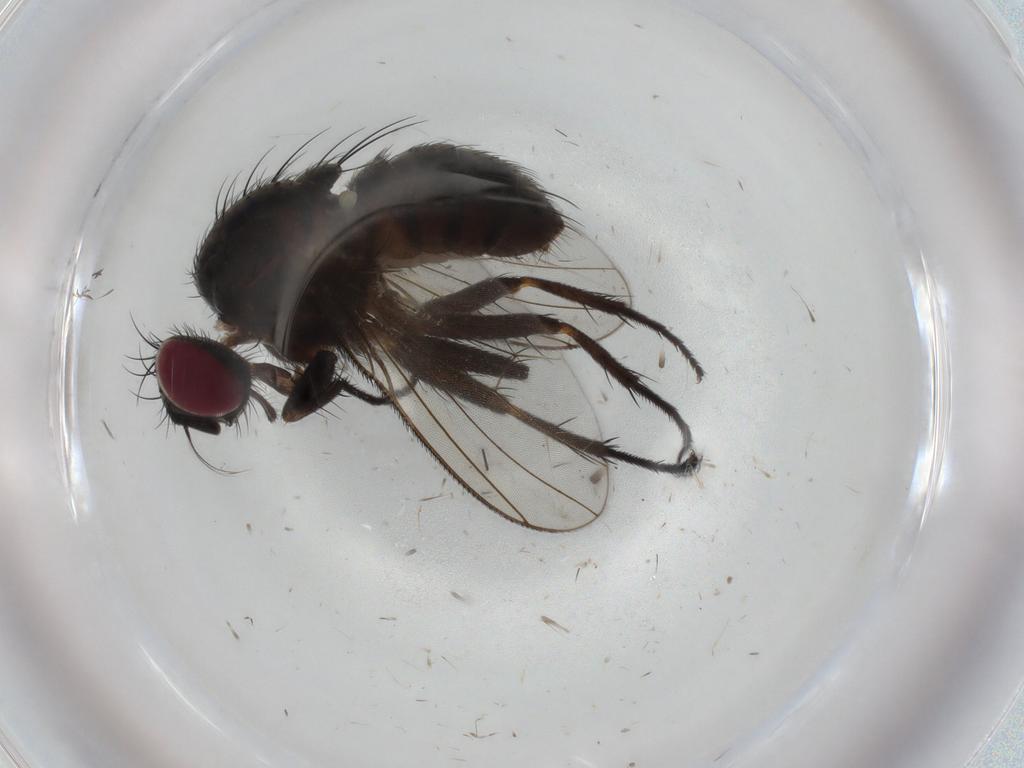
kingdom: Animalia
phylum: Arthropoda
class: Insecta
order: Diptera
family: Muscidae
